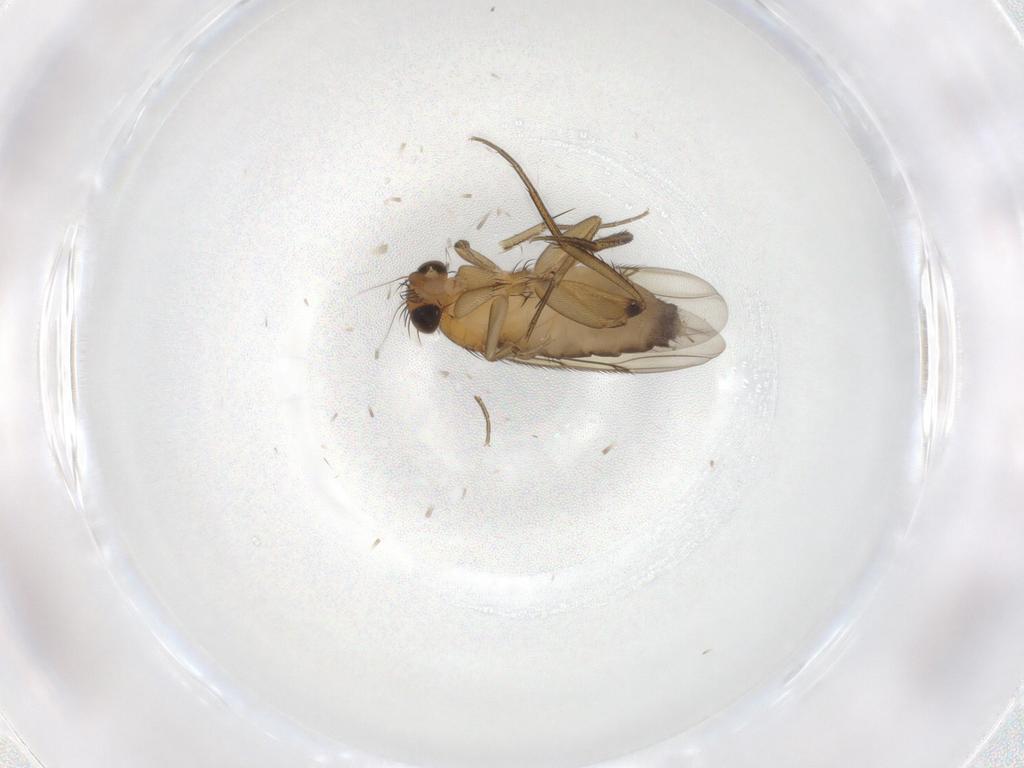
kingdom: Animalia
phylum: Arthropoda
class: Insecta
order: Diptera
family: Phoridae
